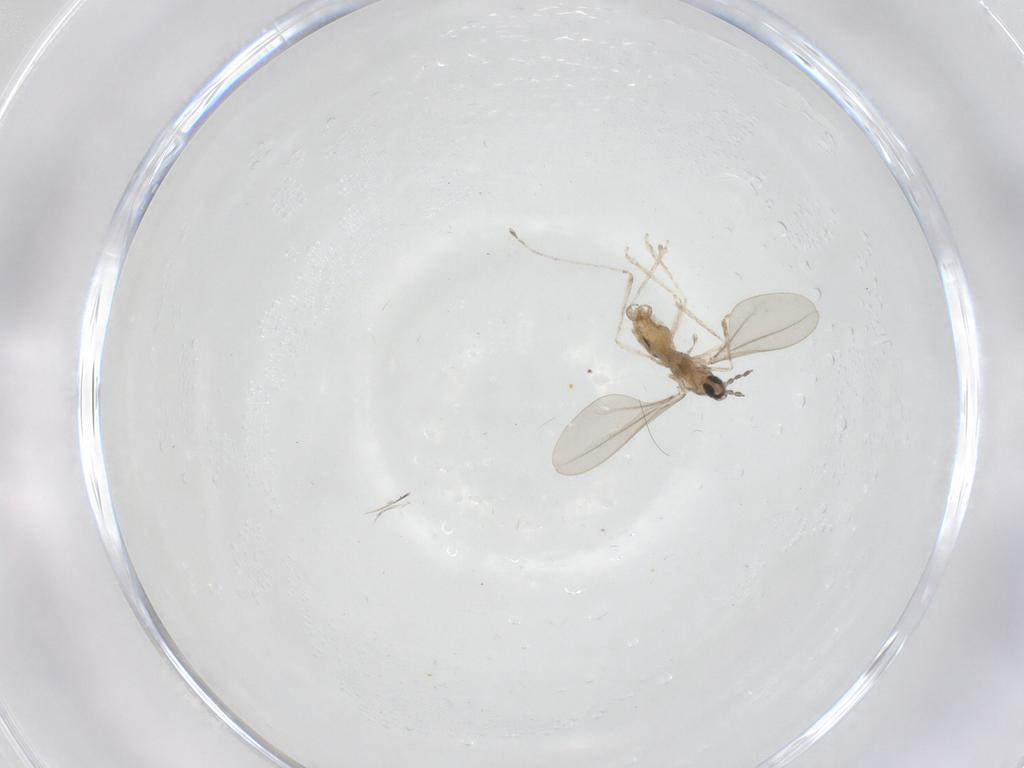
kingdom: Animalia
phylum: Arthropoda
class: Insecta
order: Diptera
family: Cecidomyiidae
